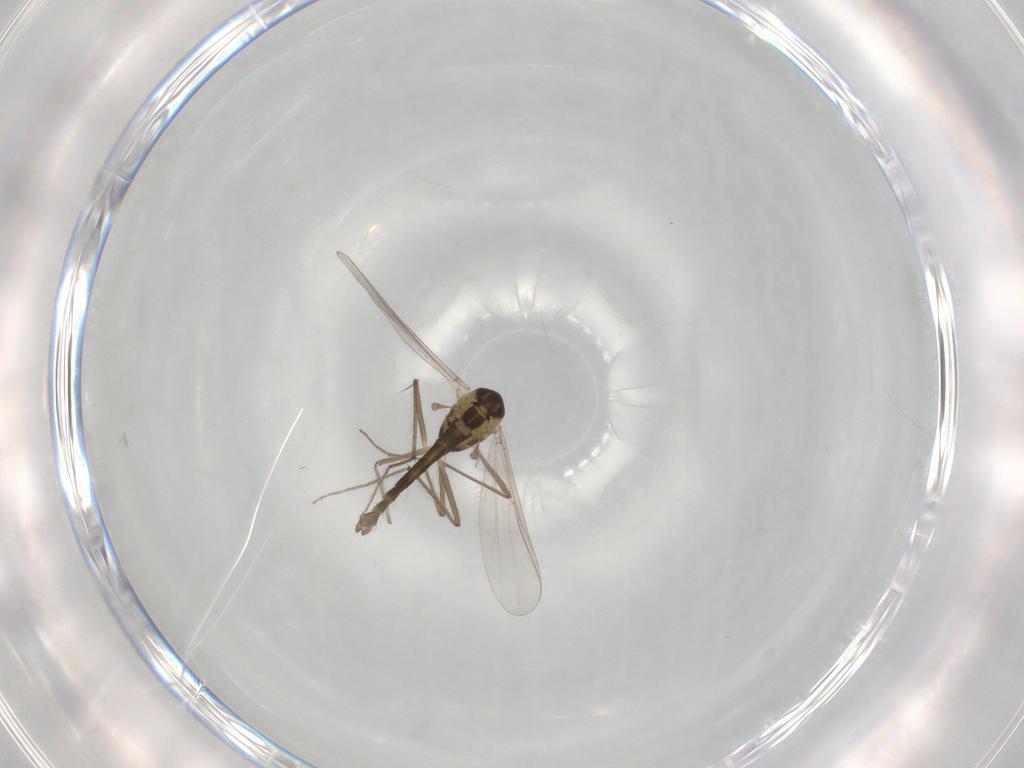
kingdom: Animalia
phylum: Arthropoda
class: Insecta
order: Diptera
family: Chironomidae
